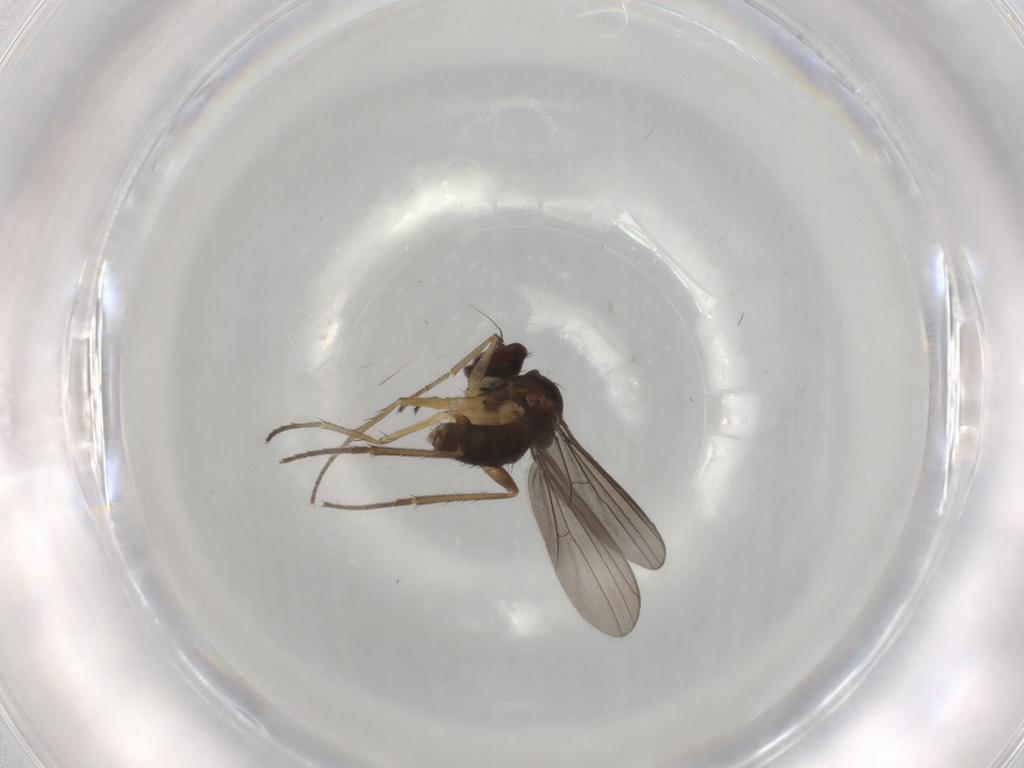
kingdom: Animalia
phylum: Arthropoda
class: Insecta
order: Diptera
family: Dolichopodidae
